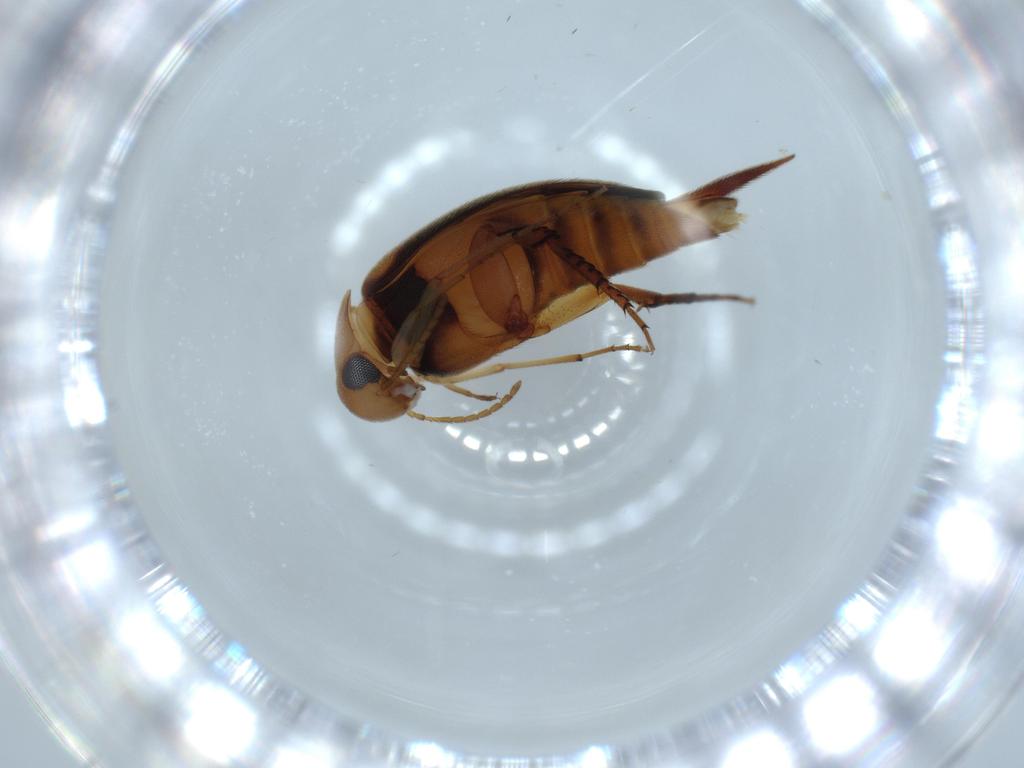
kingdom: Animalia
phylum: Arthropoda
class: Insecta
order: Coleoptera
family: Mordellidae
